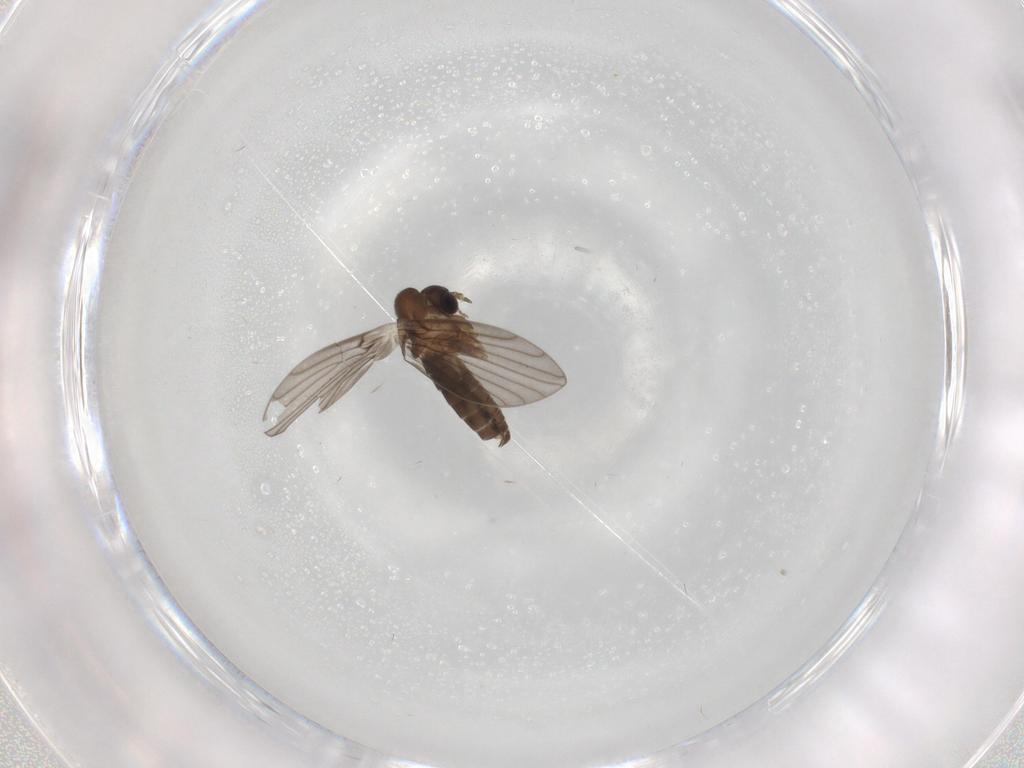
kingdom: Animalia
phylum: Arthropoda
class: Insecta
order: Diptera
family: Psychodidae
